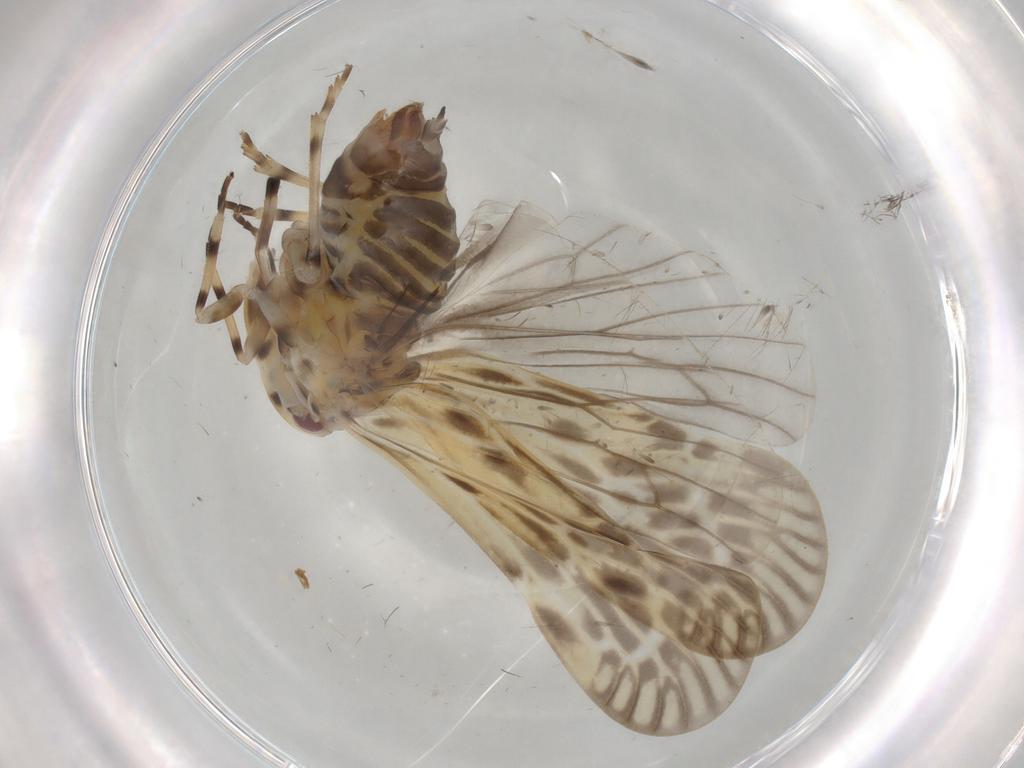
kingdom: Animalia
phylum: Arthropoda
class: Insecta
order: Hemiptera
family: Derbidae
